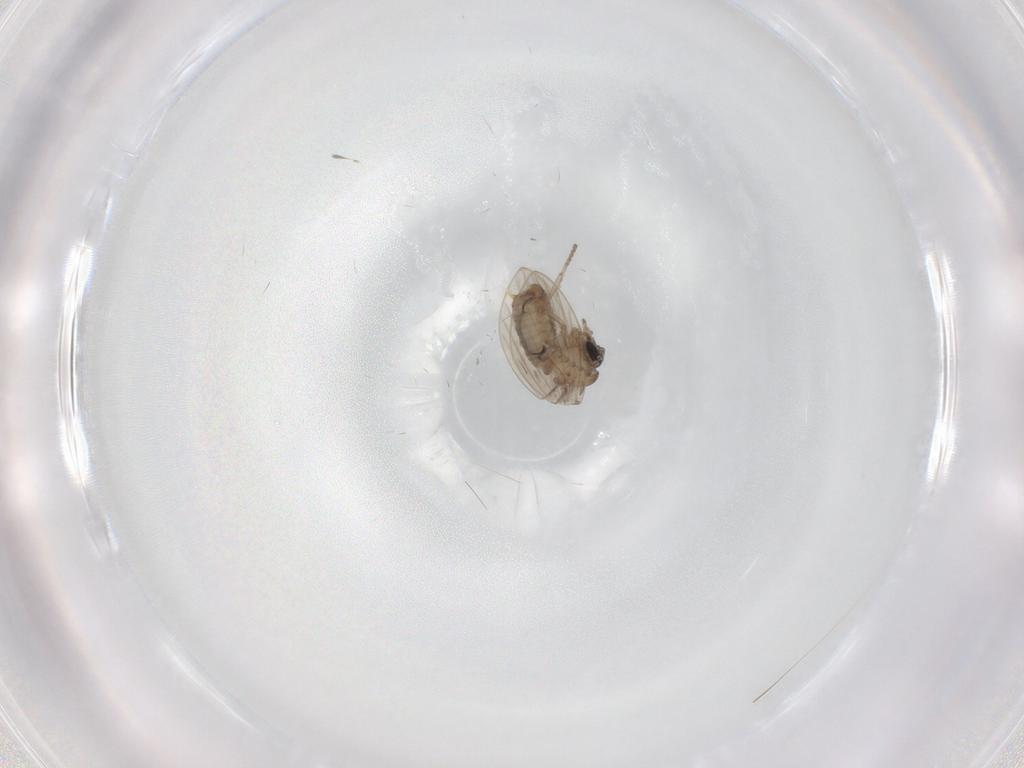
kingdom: Animalia
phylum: Arthropoda
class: Insecta
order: Diptera
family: Psychodidae
